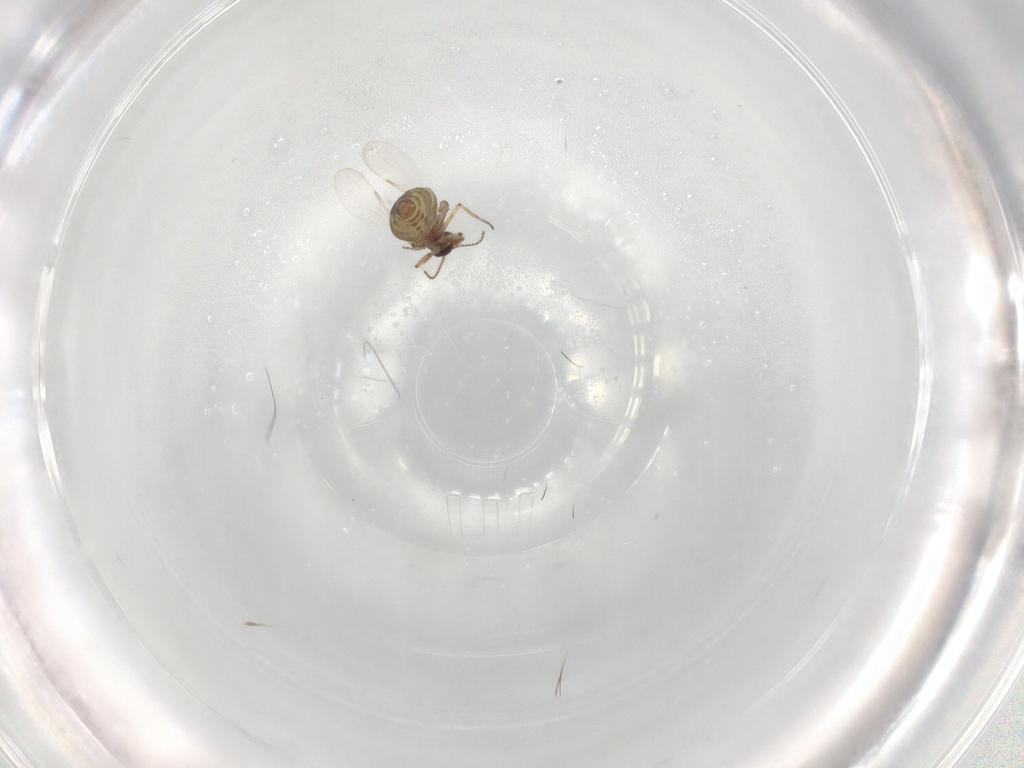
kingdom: Animalia
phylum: Arthropoda
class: Insecta
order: Diptera
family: Ceratopogonidae
